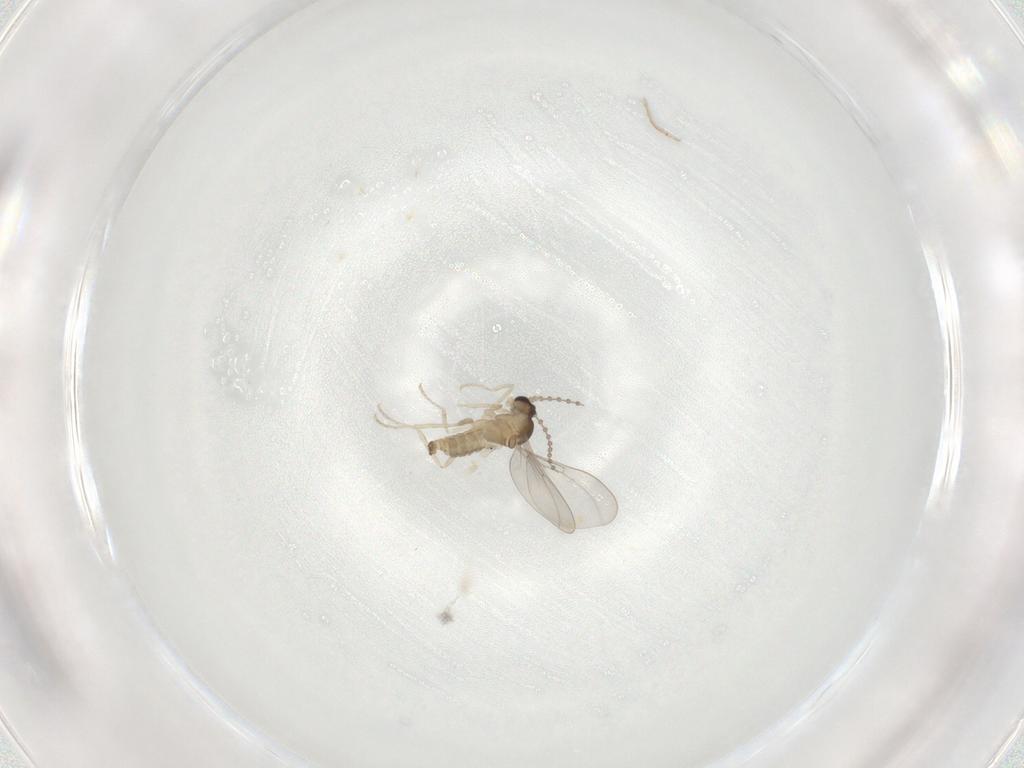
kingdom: Animalia
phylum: Arthropoda
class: Insecta
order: Diptera
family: Cecidomyiidae
